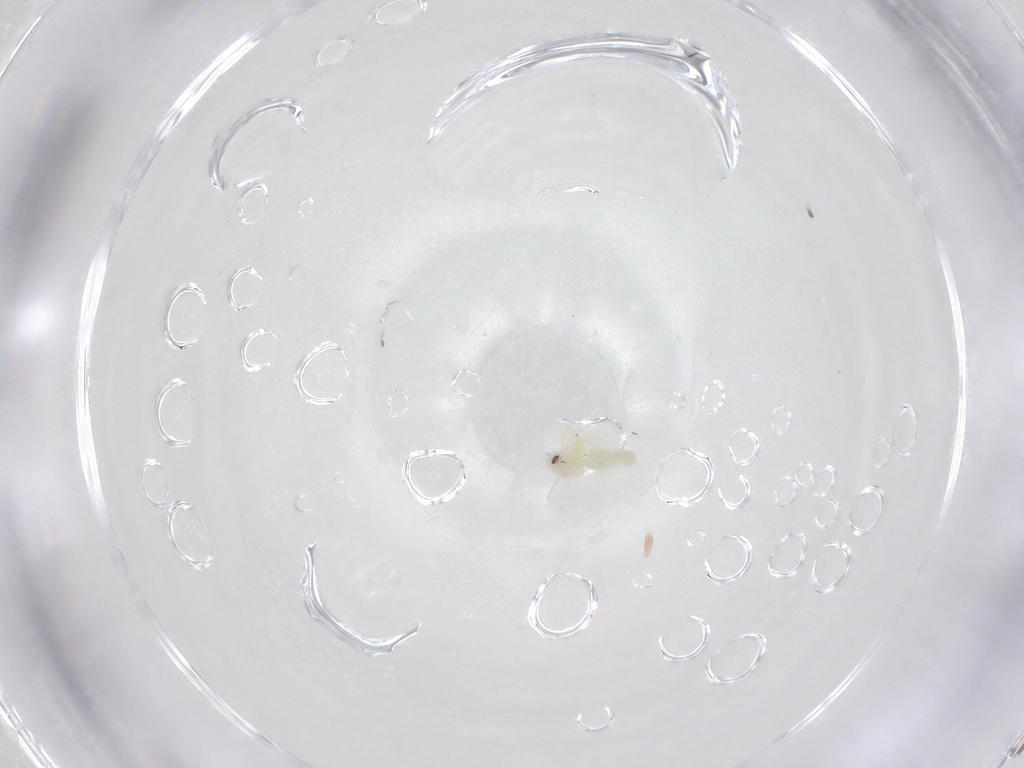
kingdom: Animalia
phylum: Arthropoda
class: Insecta
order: Hemiptera
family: Aleyrodidae
